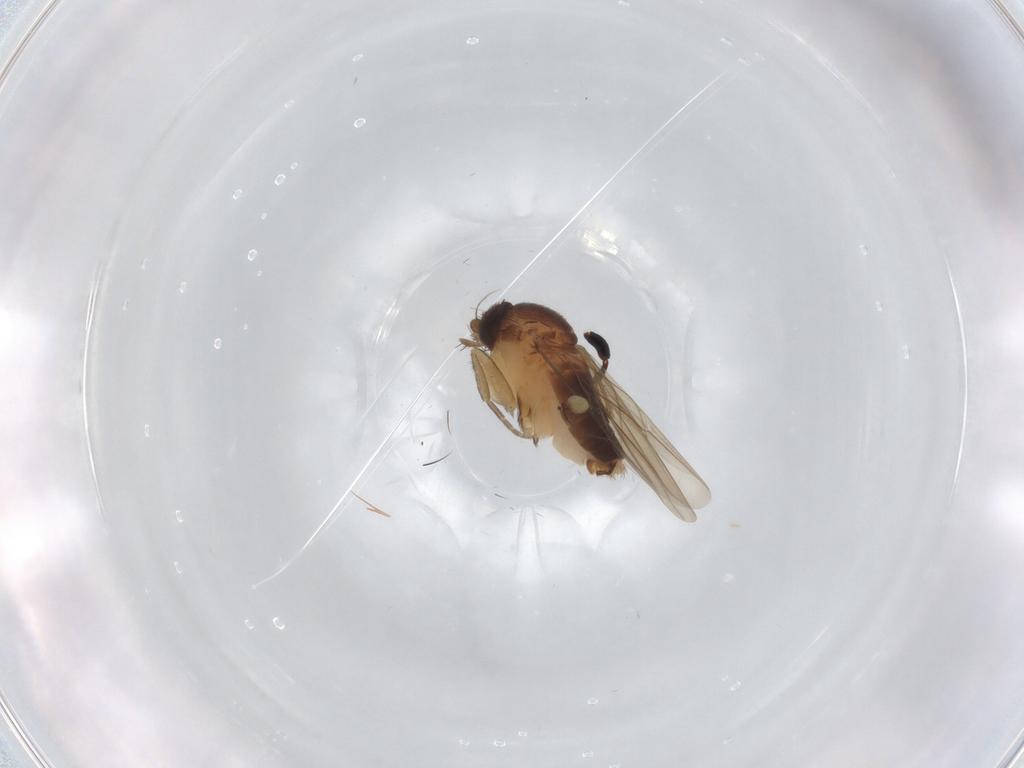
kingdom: Animalia
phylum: Arthropoda
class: Insecta
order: Diptera
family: Phoridae
